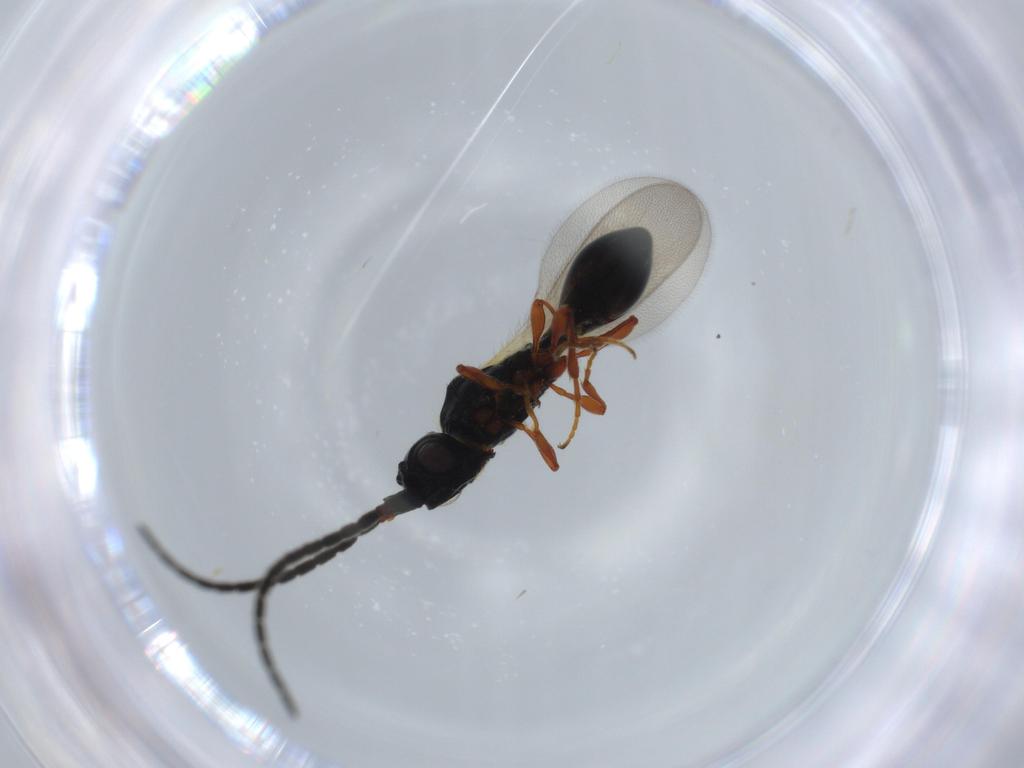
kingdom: Animalia
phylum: Arthropoda
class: Insecta
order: Hymenoptera
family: Diapriidae
